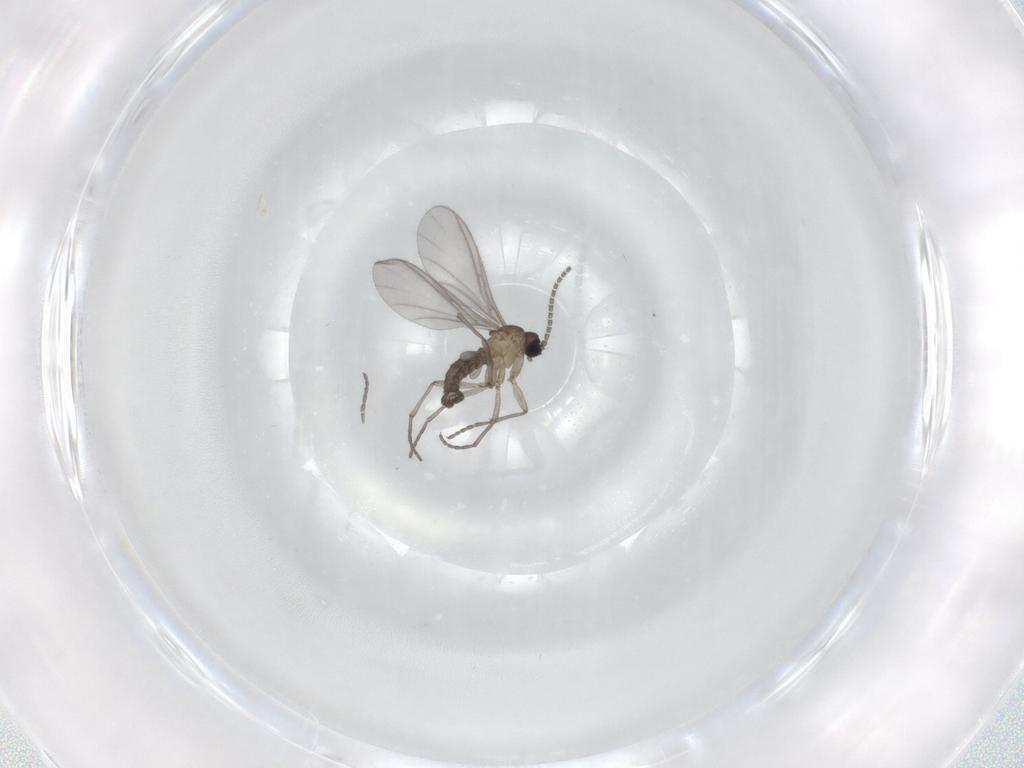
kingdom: Animalia
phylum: Arthropoda
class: Insecta
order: Diptera
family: Sciaridae
